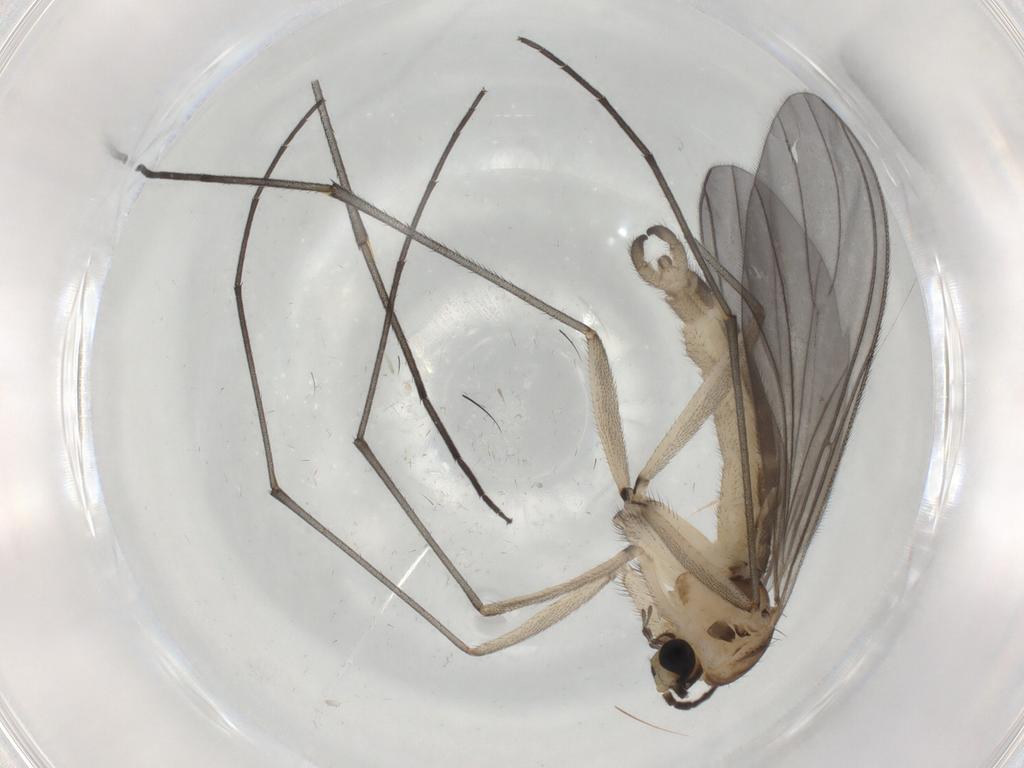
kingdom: Animalia
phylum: Arthropoda
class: Insecta
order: Diptera
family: Sciaridae
